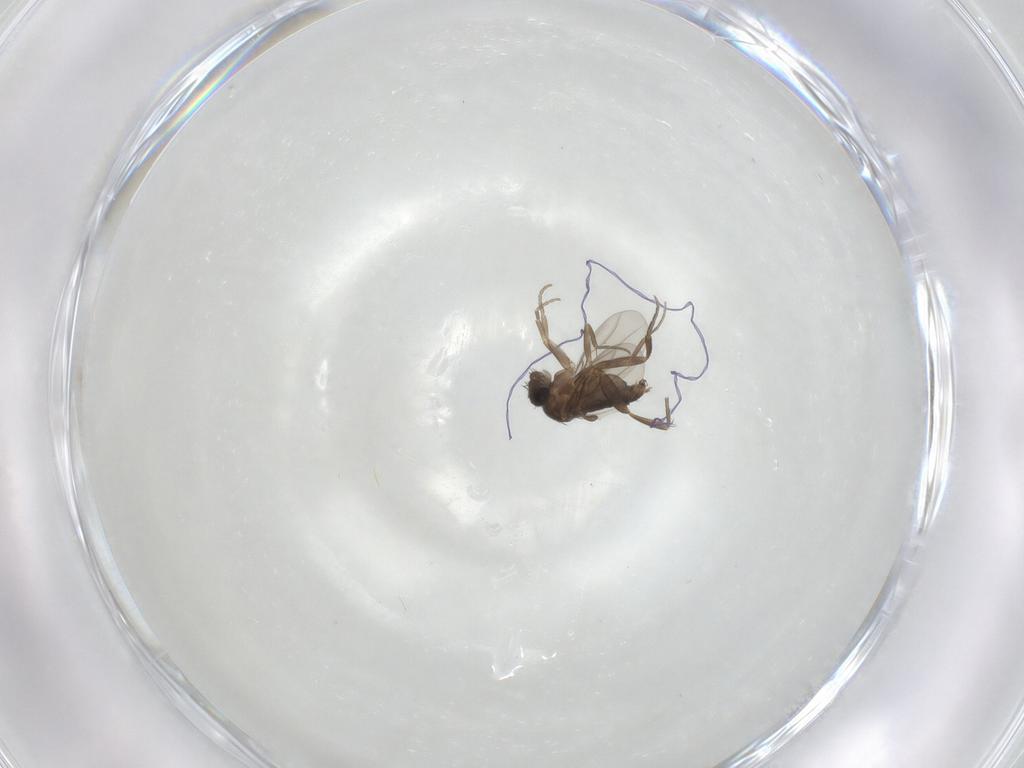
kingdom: Animalia
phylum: Arthropoda
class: Insecta
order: Diptera
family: Phoridae
